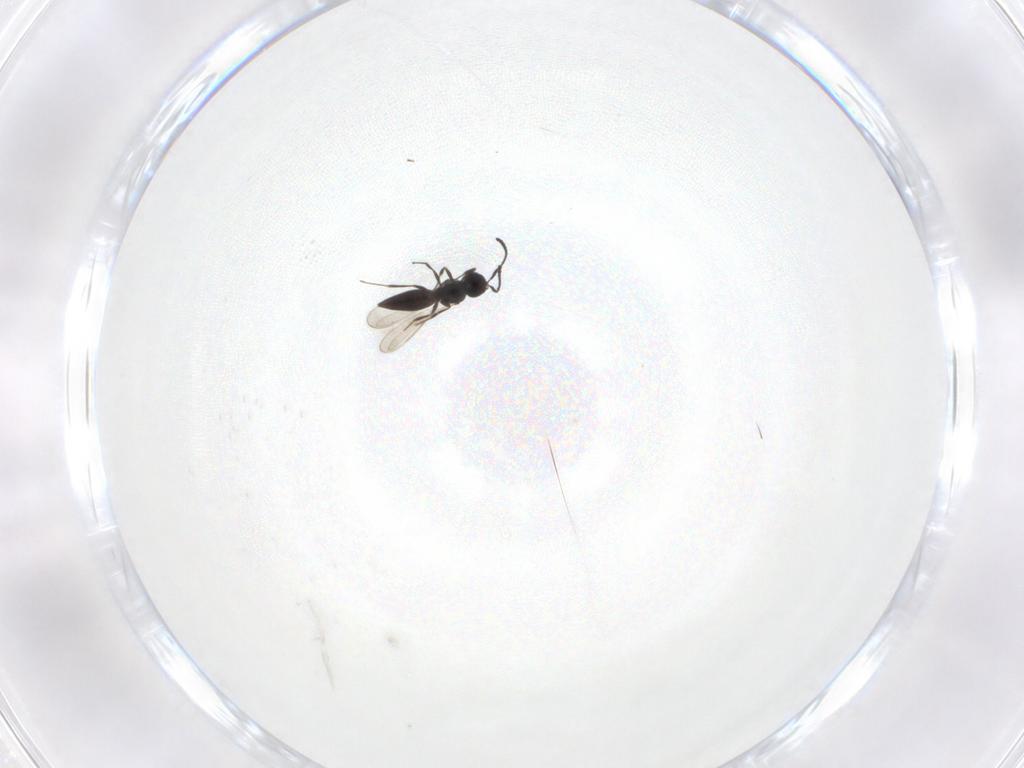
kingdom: Animalia
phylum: Arthropoda
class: Insecta
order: Hymenoptera
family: Scelionidae
